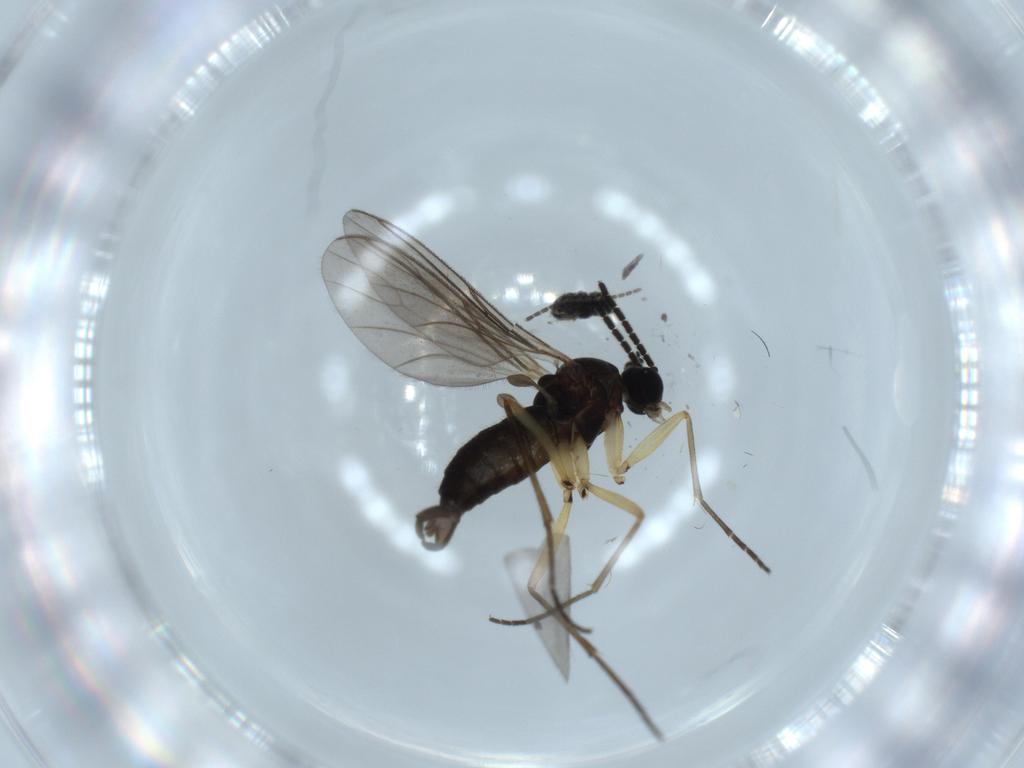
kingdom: Animalia
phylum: Arthropoda
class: Insecta
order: Diptera
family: Sciaridae
